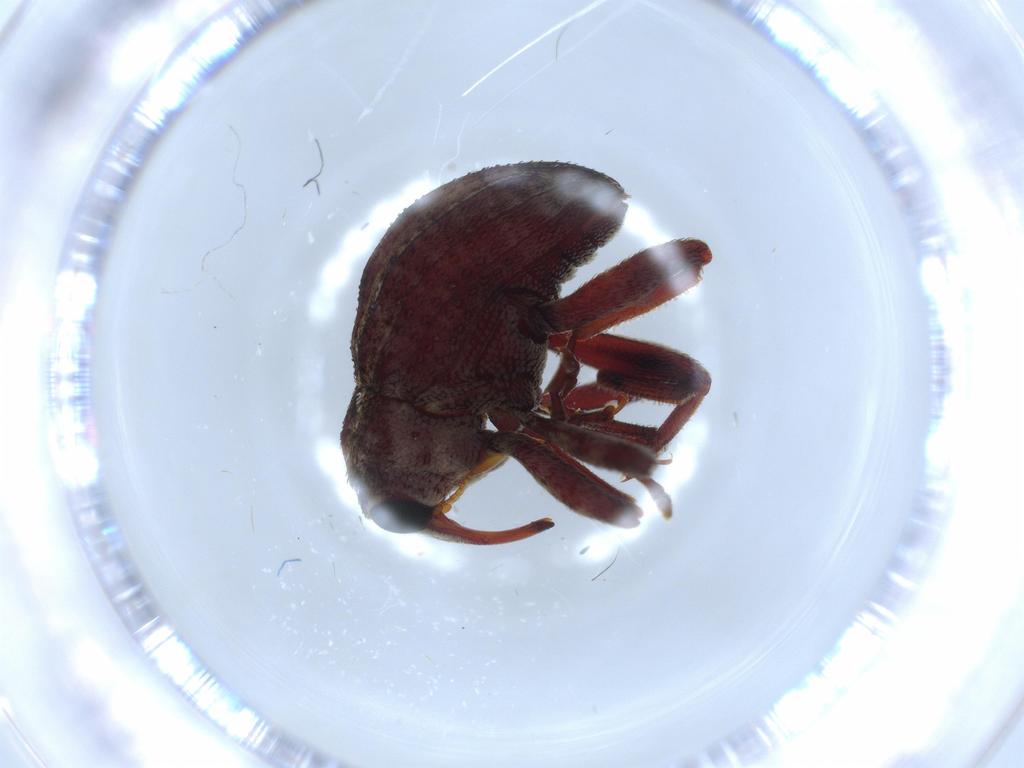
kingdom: Animalia
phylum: Arthropoda
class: Insecta
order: Coleoptera
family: Curculionidae
